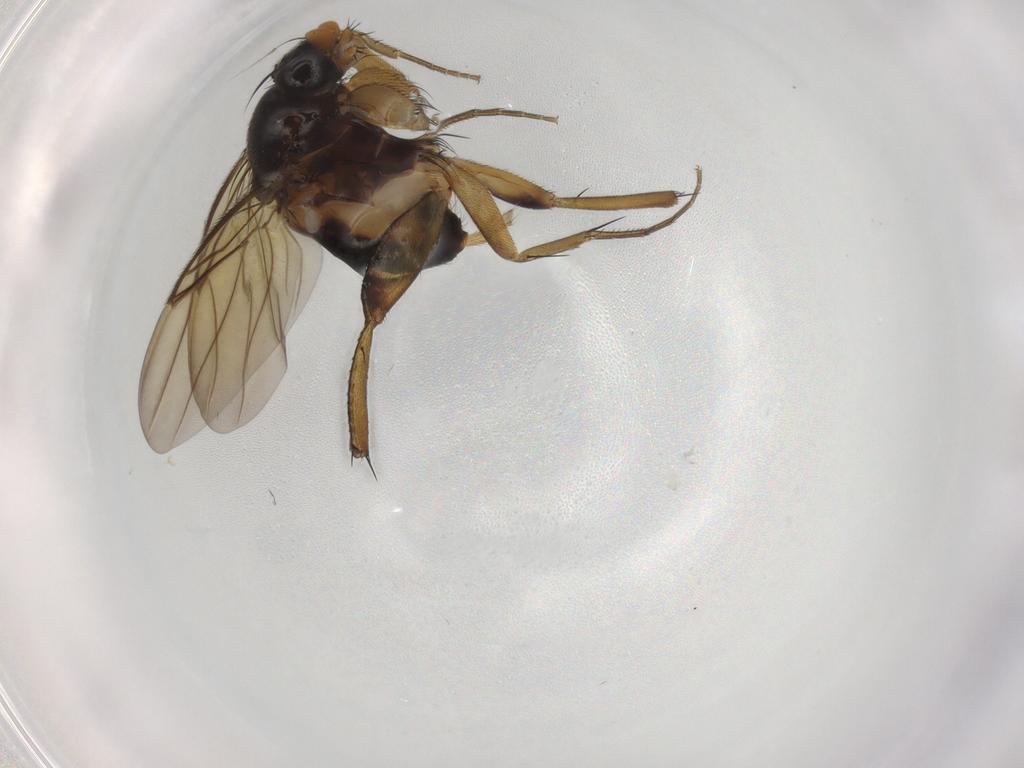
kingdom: Animalia
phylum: Arthropoda
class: Insecta
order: Diptera
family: Phoridae
